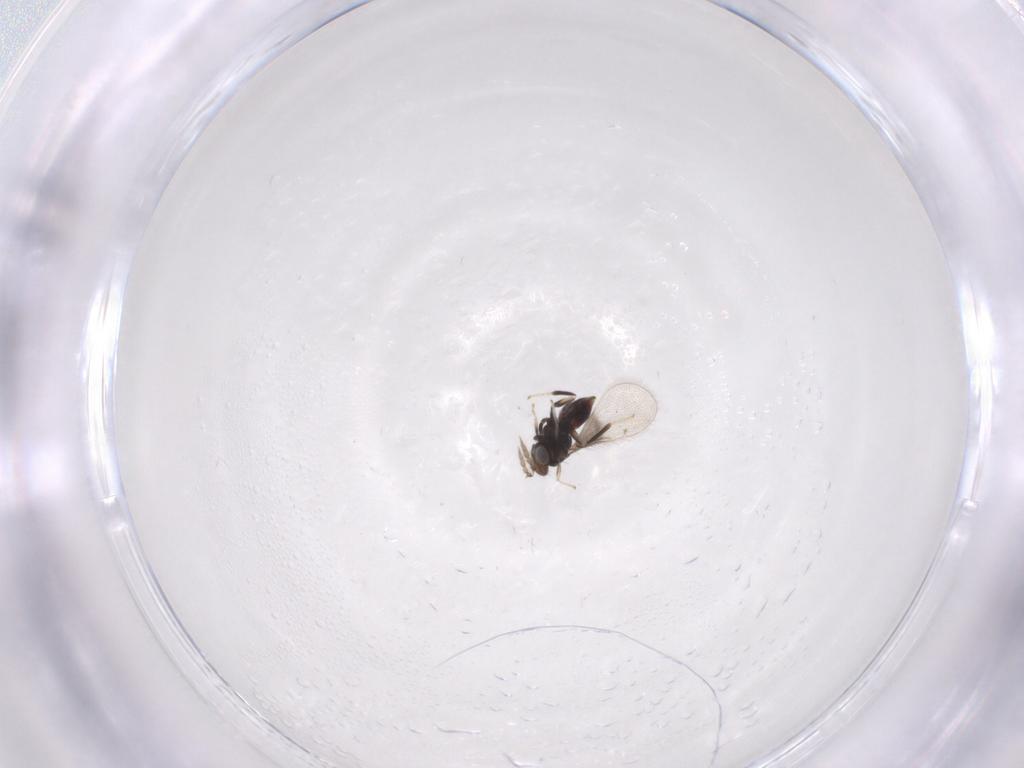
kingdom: Animalia
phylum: Arthropoda
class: Insecta
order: Hymenoptera
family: Eulophidae
